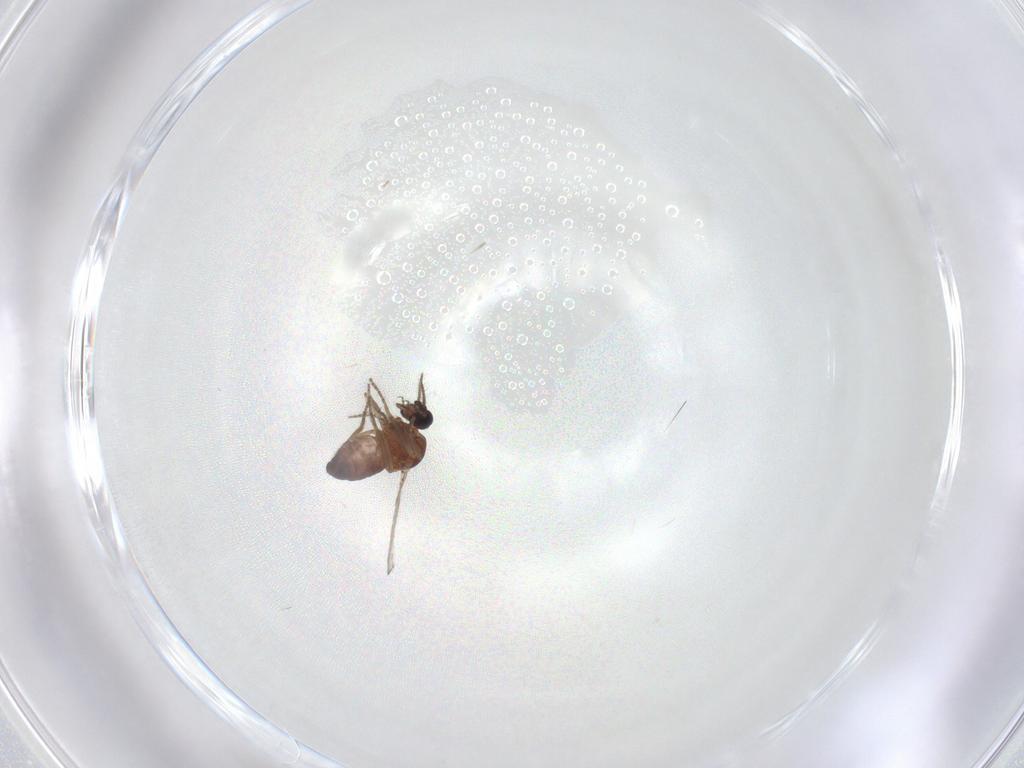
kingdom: Animalia
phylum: Arthropoda
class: Insecta
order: Diptera
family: Ceratopogonidae
